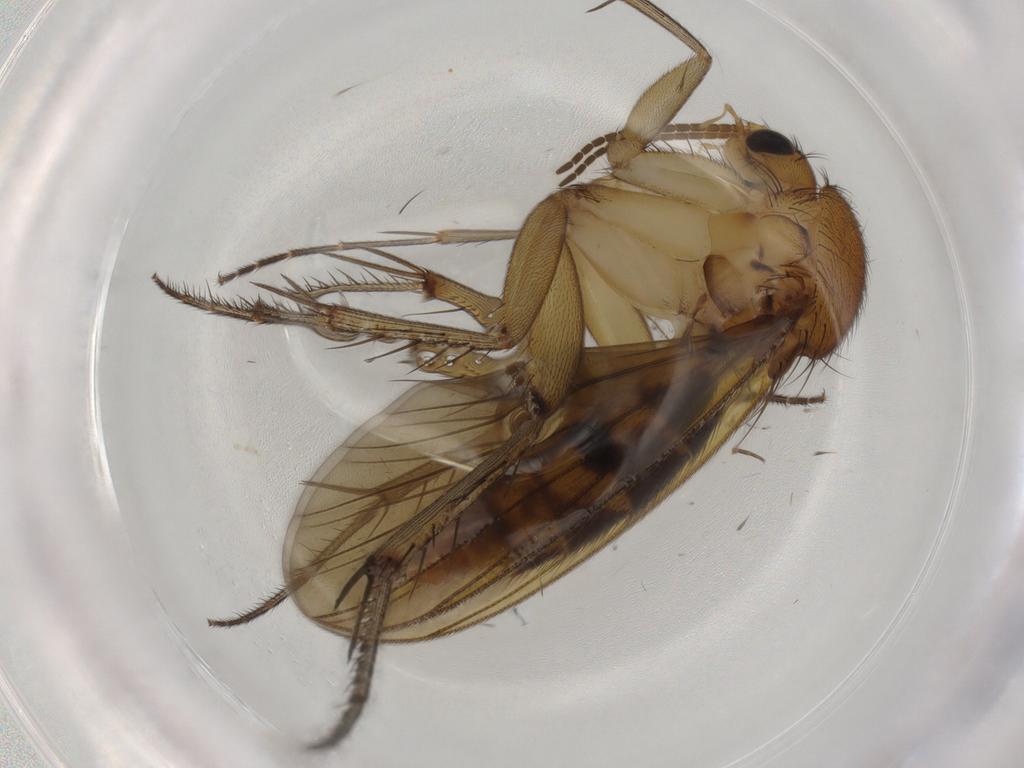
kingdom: Animalia
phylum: Arthropoda
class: Insecta
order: Diptera
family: Mycetophilidae
